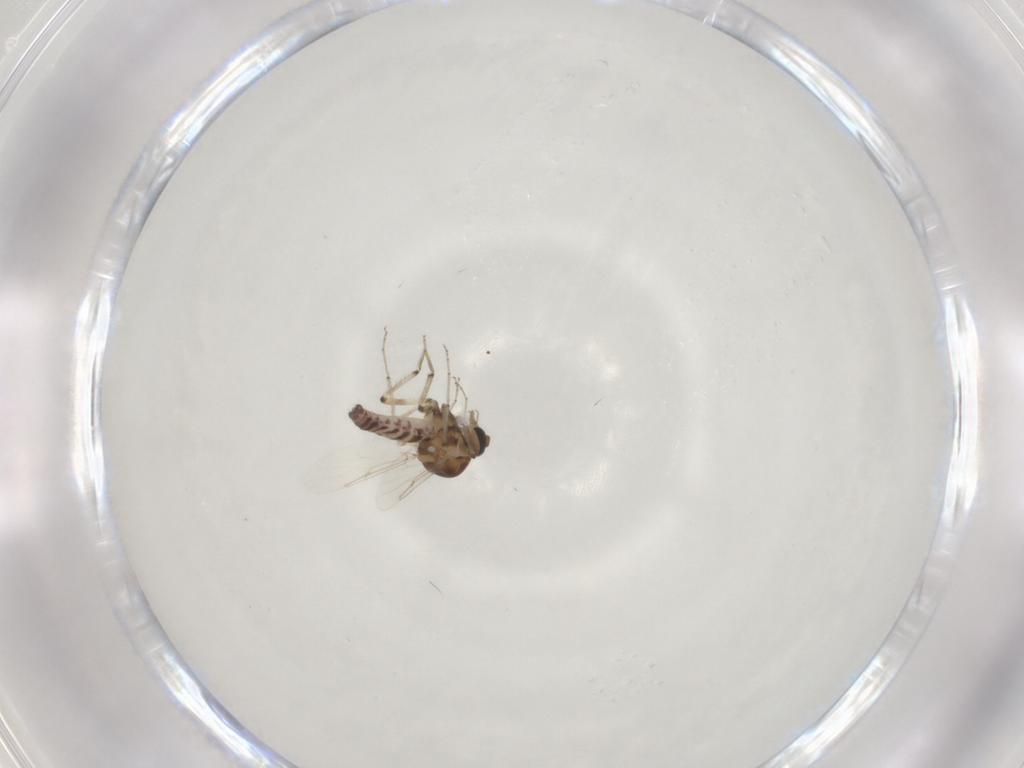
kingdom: Animalia
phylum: Arthropoda
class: Insecta
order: Diptera
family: Ceratopogonidae
